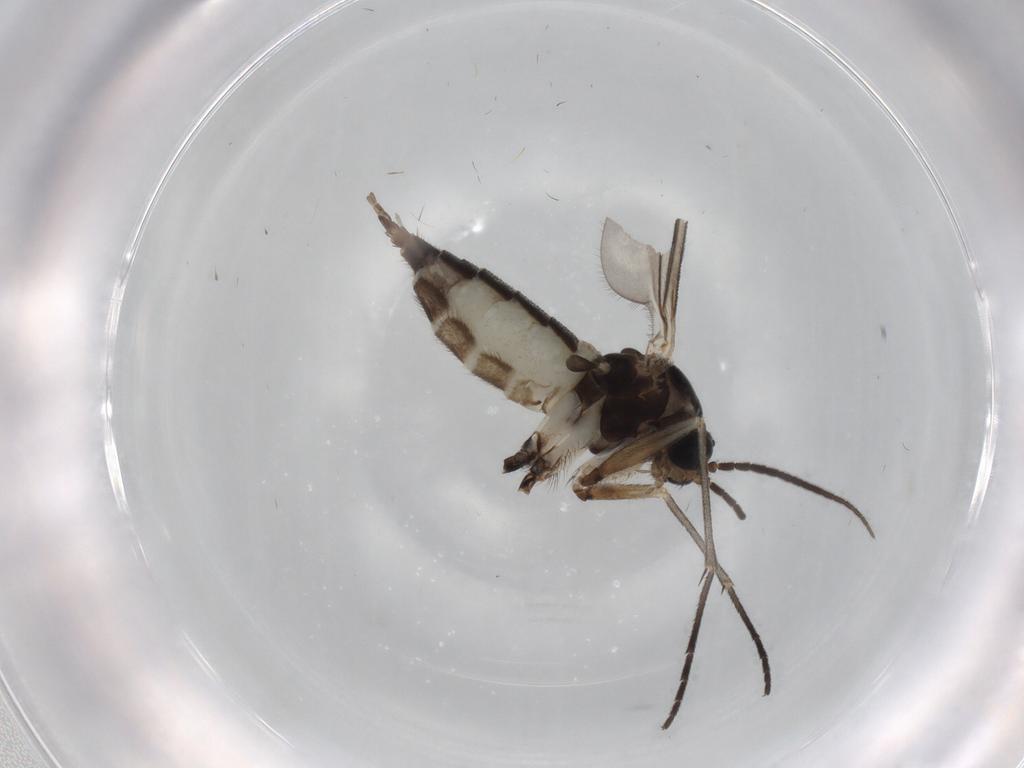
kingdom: Animalia
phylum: Arthropoda
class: Insecta
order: Diptera
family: Sciaridae
